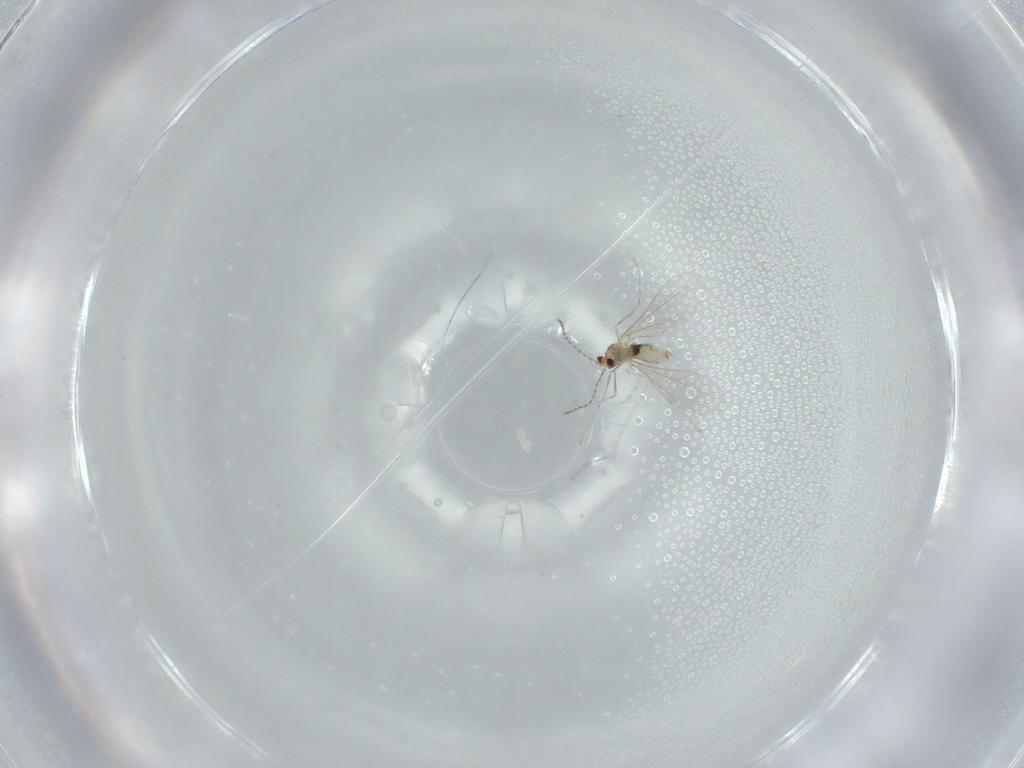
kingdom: Animalia
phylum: Arthropoda
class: Insecta
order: Diptera
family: Cecidomyiidae
